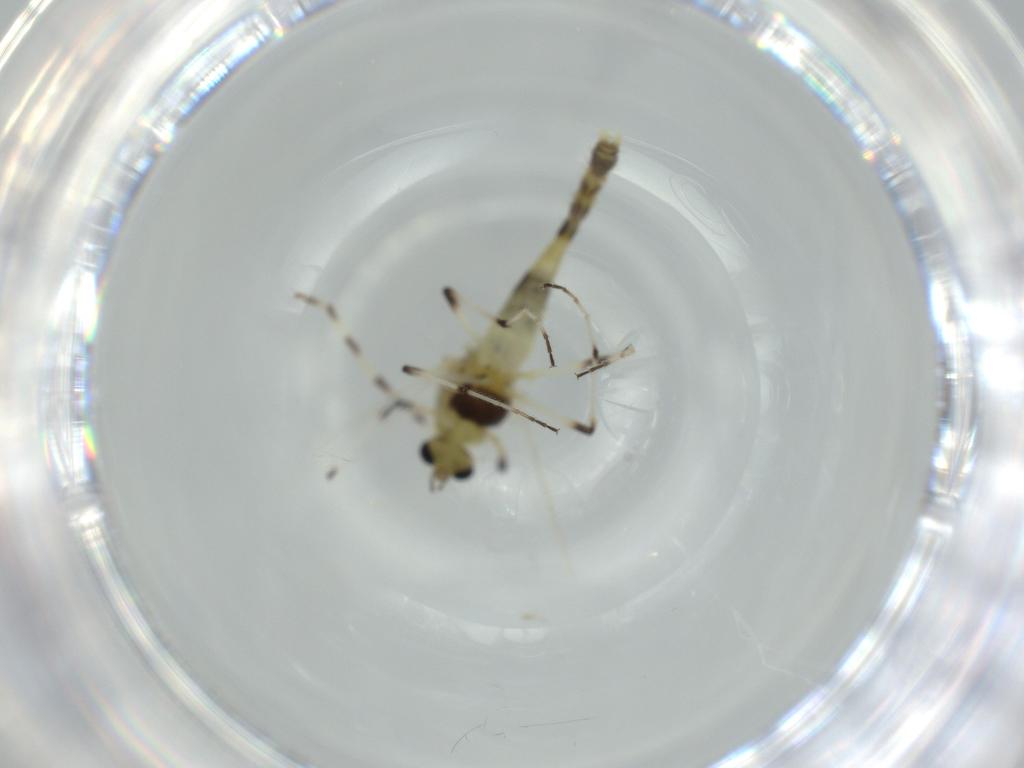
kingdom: Animalia
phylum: Arthropoda
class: Insecta
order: Diptera
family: Chironomidae
